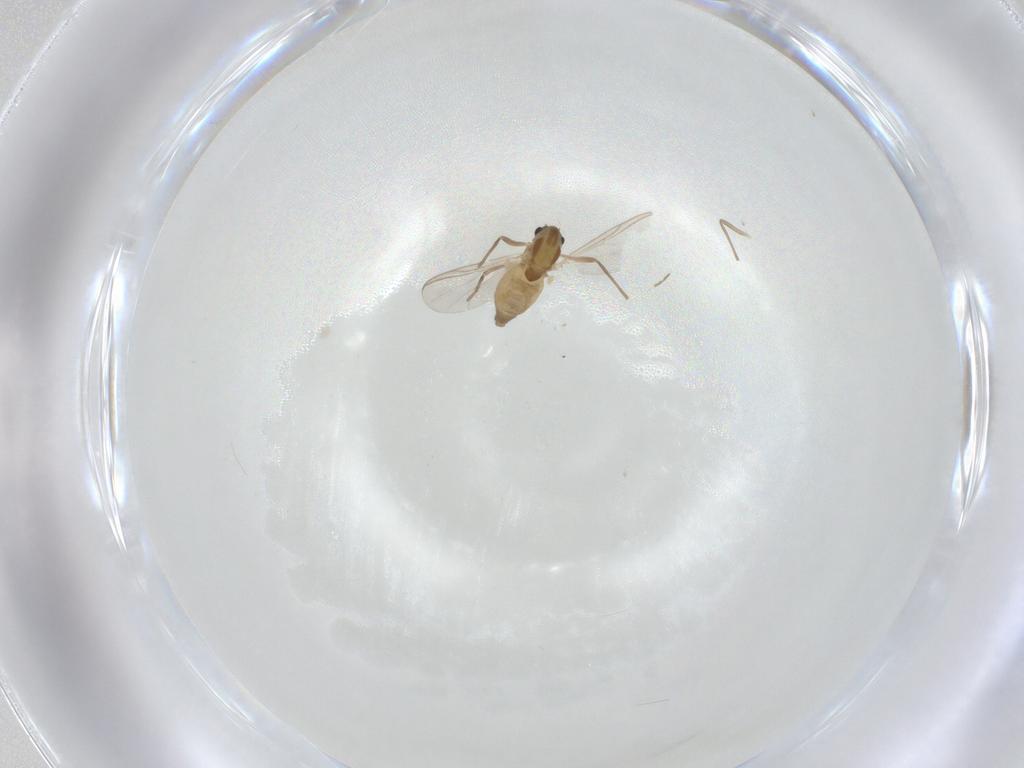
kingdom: Animalia
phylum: Arthropoda
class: Insecta
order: Diptera
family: Chironomidae
